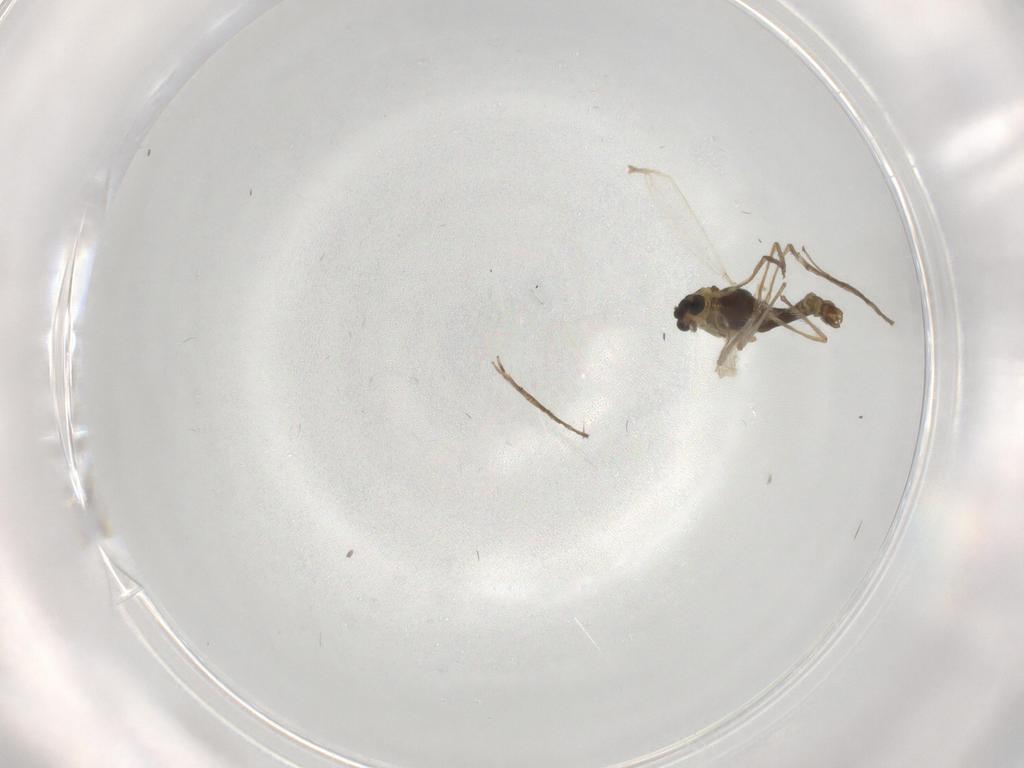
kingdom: Animalia
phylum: Arthropoda
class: Insecta
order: Diptera
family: Chironomidae
